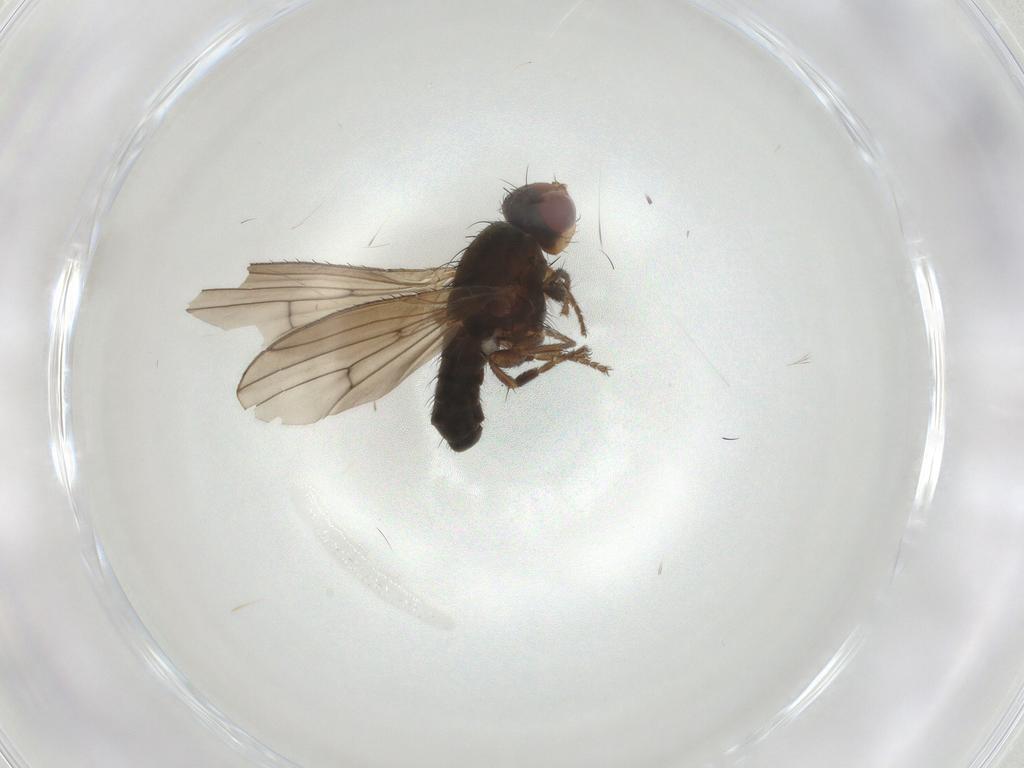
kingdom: Animalia
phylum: Arthropoda
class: Insecta
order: Diptera
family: Heleomyzidae
